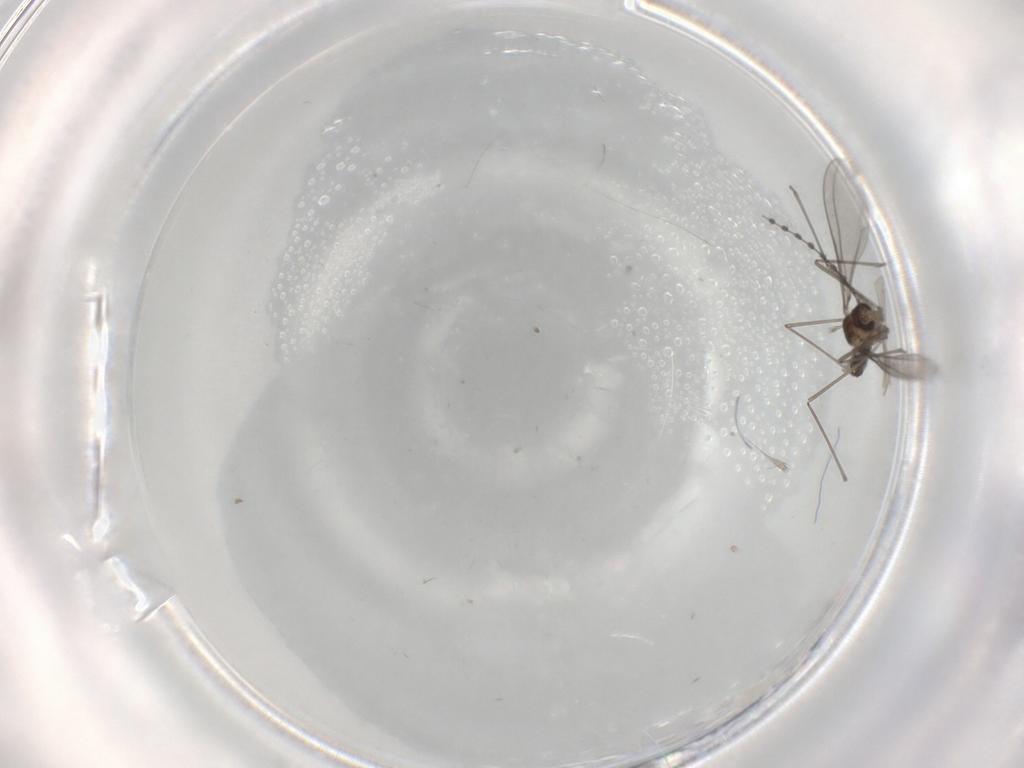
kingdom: Animalia
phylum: Arthropoda
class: Insecta
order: Diptera
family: Cecidomyiidae
